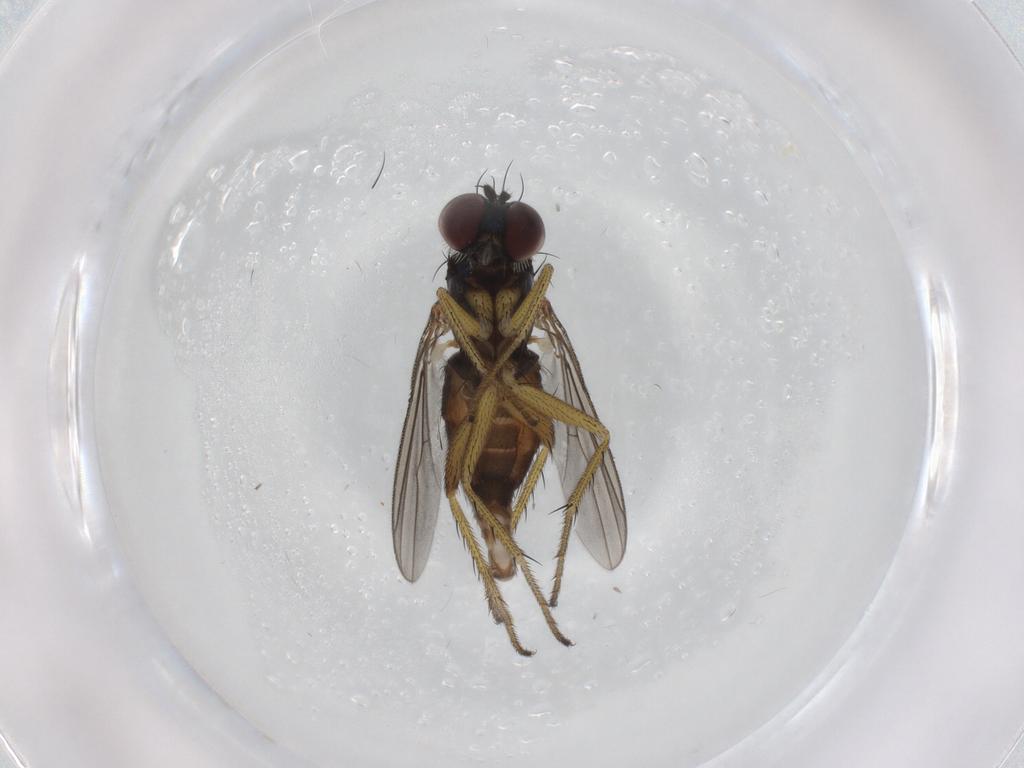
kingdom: Animalia
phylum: Arthropoda
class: Insecta
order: Diptera
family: Dolichopodidae
